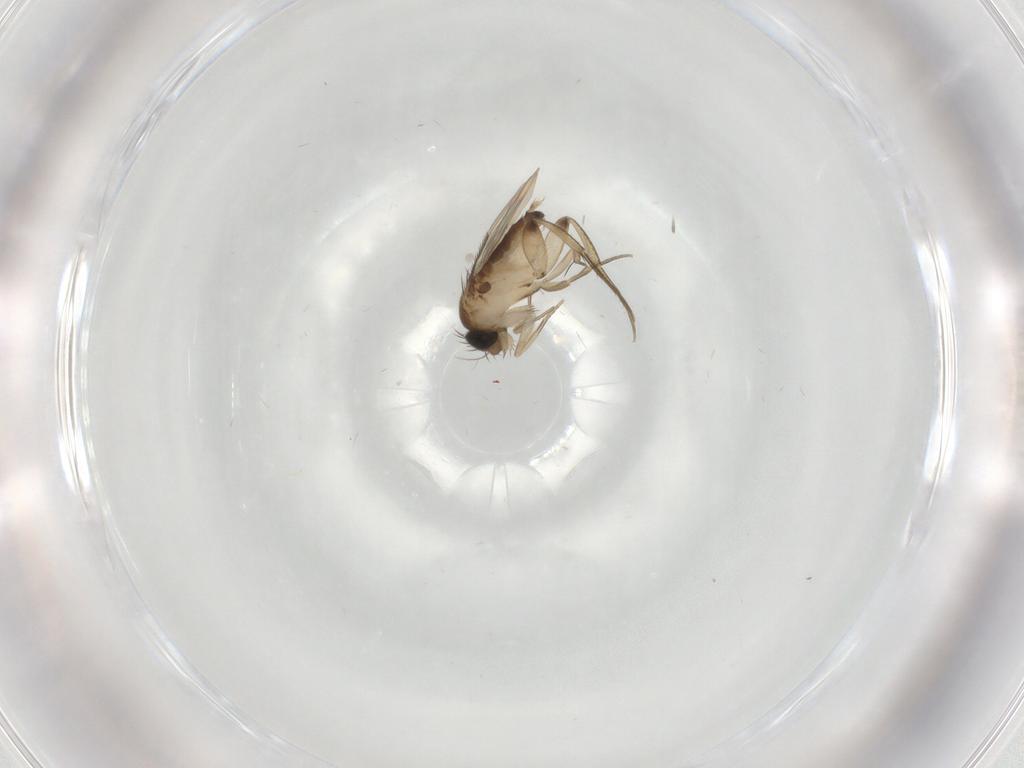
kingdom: Animalia
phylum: Arthropoda
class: Insecta
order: Diptera
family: Phoridae
